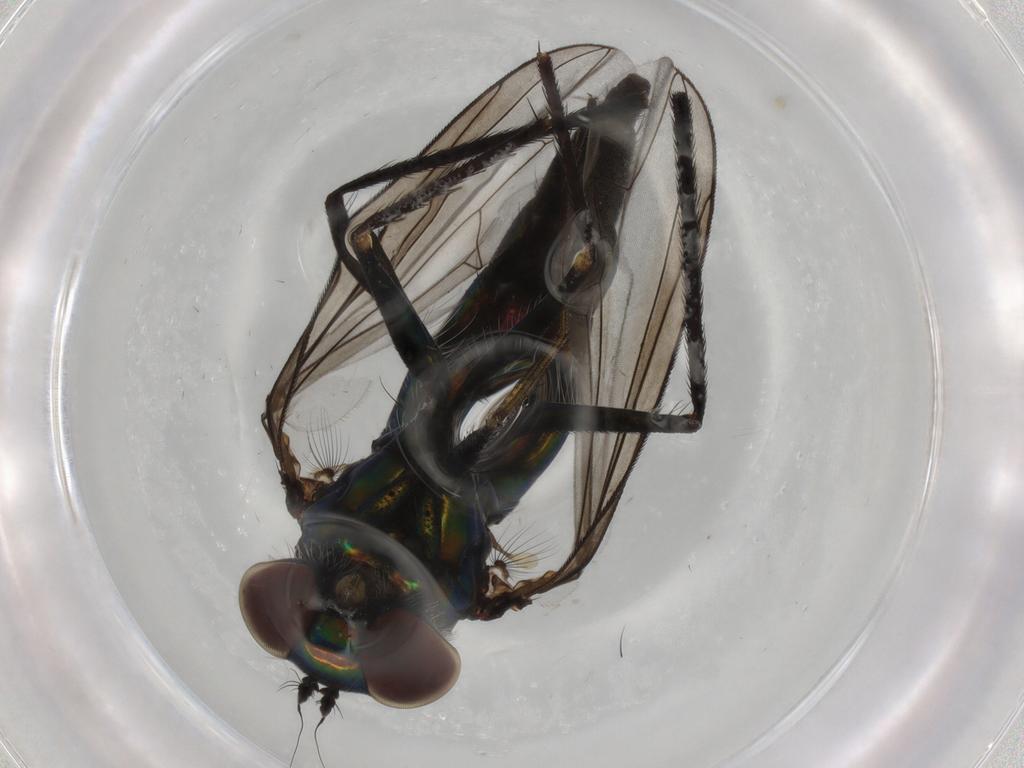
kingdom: Animalia
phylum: Arthropoda
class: Insecta
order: Diptera
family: Dolichopodidae
